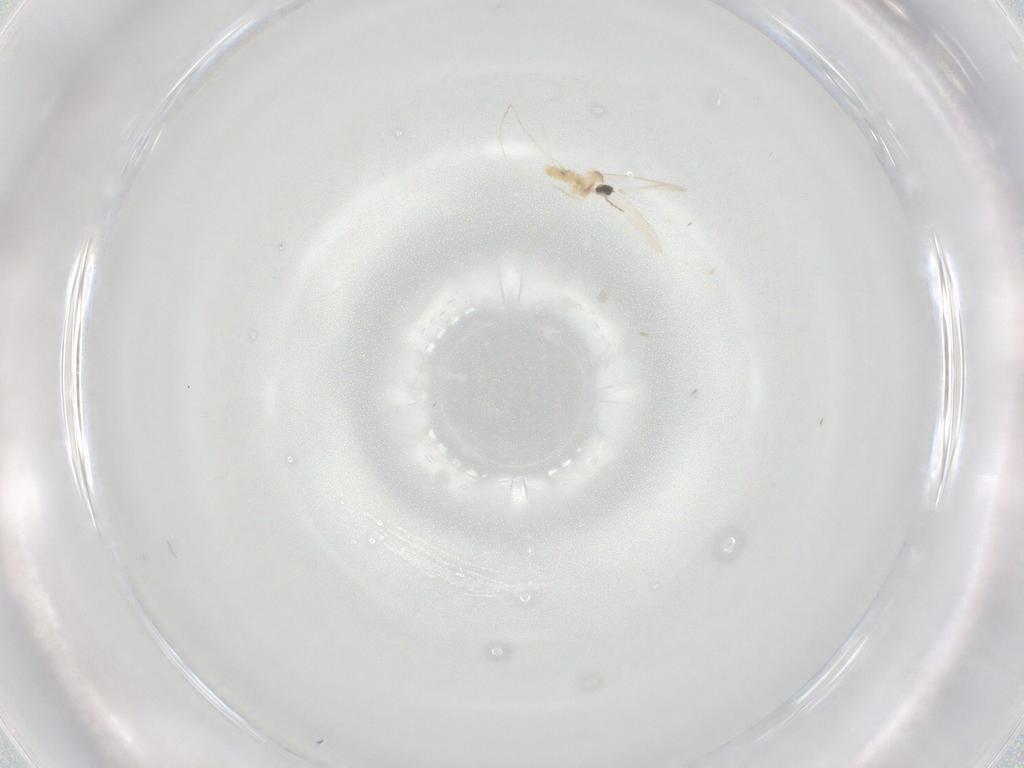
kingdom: Animalia
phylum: Arthropoda
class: Insecta
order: Diptera
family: Cecidomyiidae
